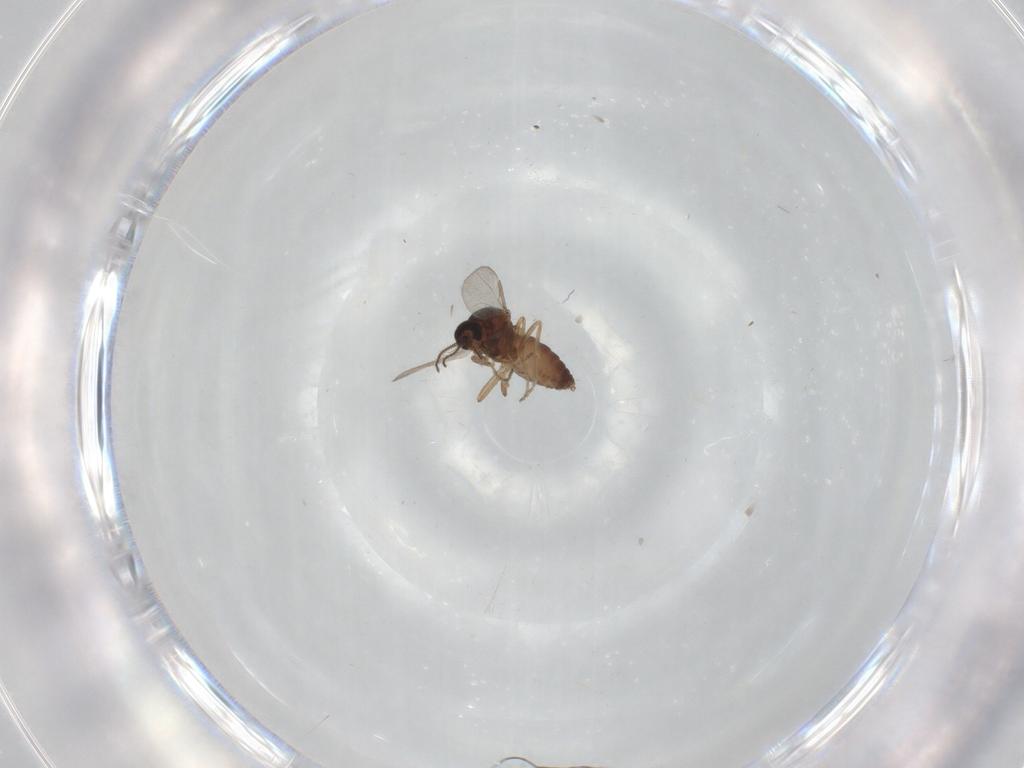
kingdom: Animalia
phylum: Arthropoda
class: Insecta
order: Diptera
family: Ceratopogonidae
